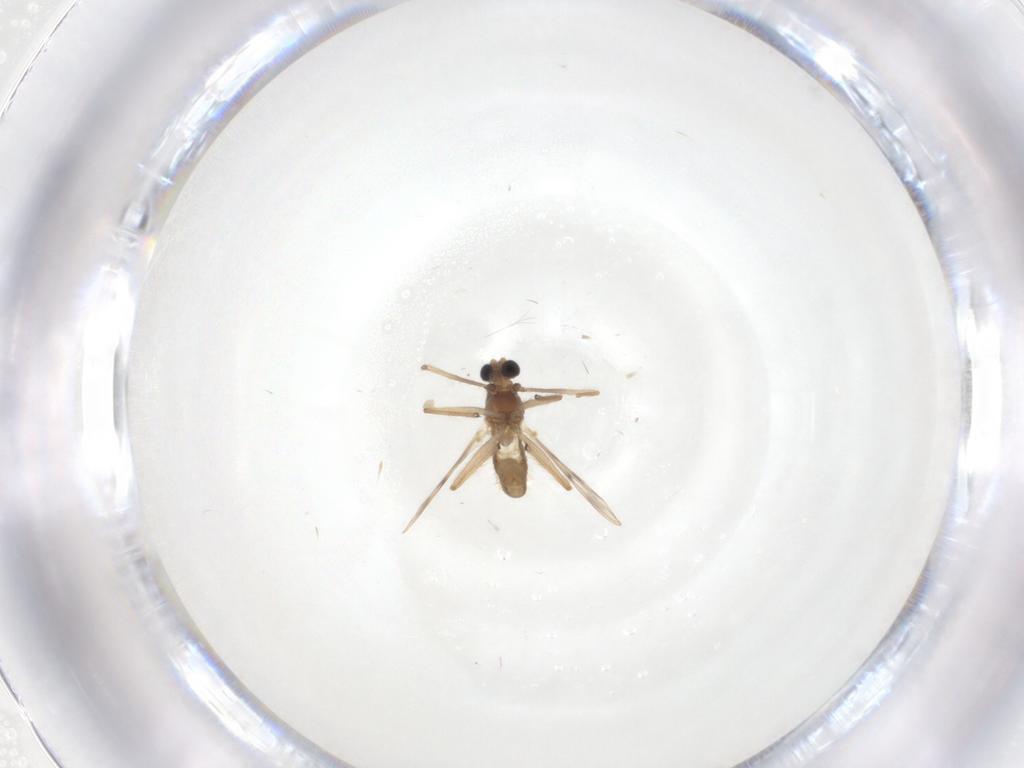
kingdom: Animalia
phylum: Arthropoda
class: Insecta
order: Diptera
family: Chironomidae
